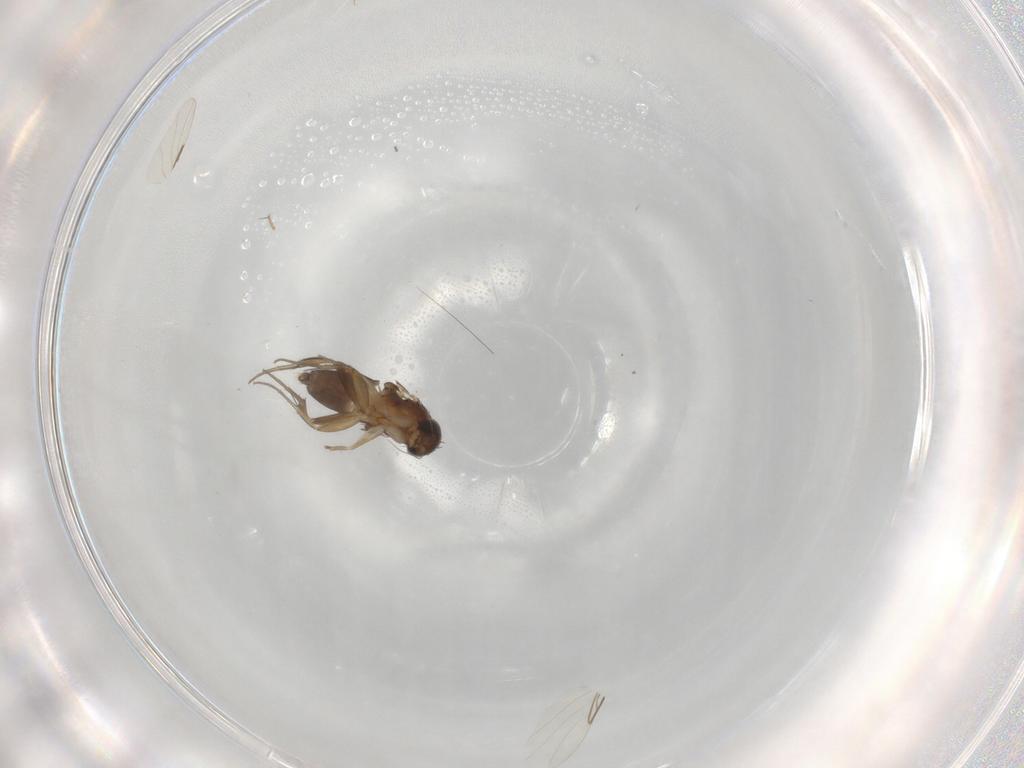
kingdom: Animalia
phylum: Arthropoda
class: Insecta
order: Diptera
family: Phoridae
